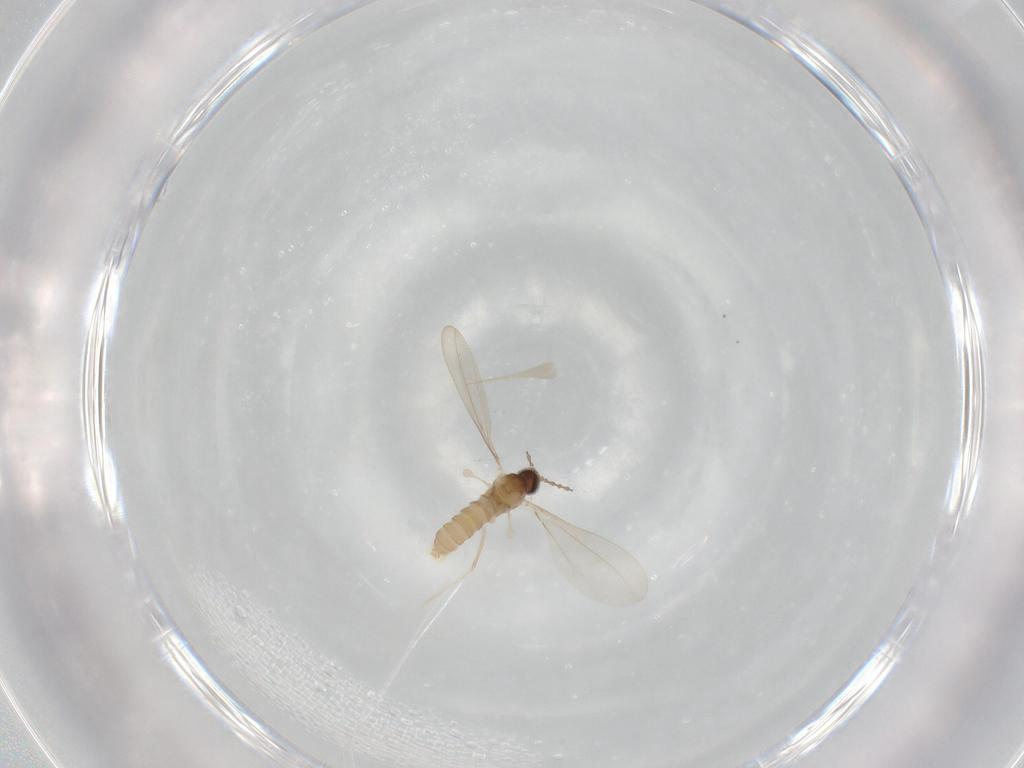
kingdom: Animalia
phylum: Arthropoda
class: Insecta
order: Diptera
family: Cecidomyiidae
